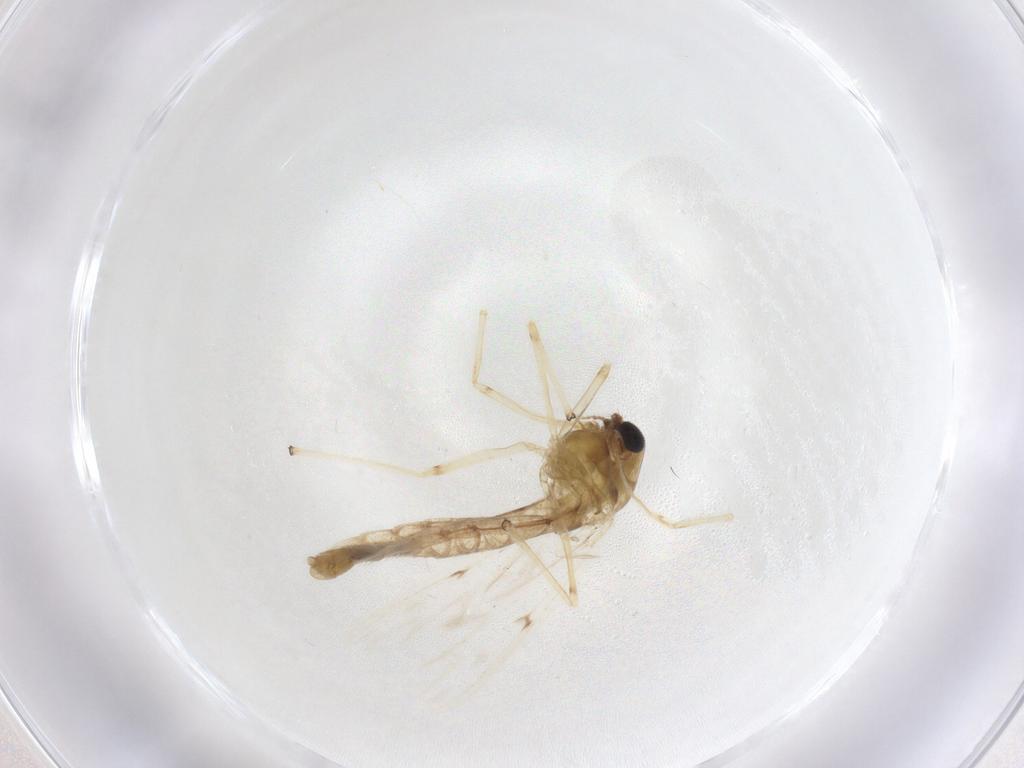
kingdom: Animalia
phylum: Arthropoda
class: Insecta
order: Diptera
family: Chironomidae
